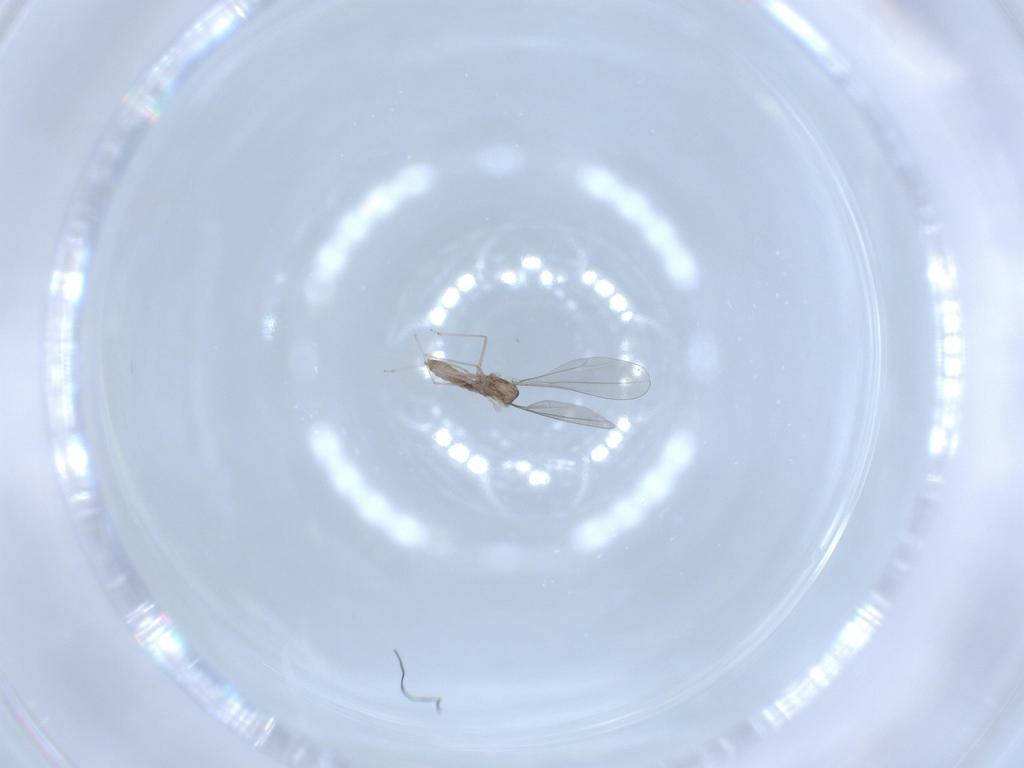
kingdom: Animalia
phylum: Arthropoda
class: Insecta
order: Diptera
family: Cecidomyiidae
